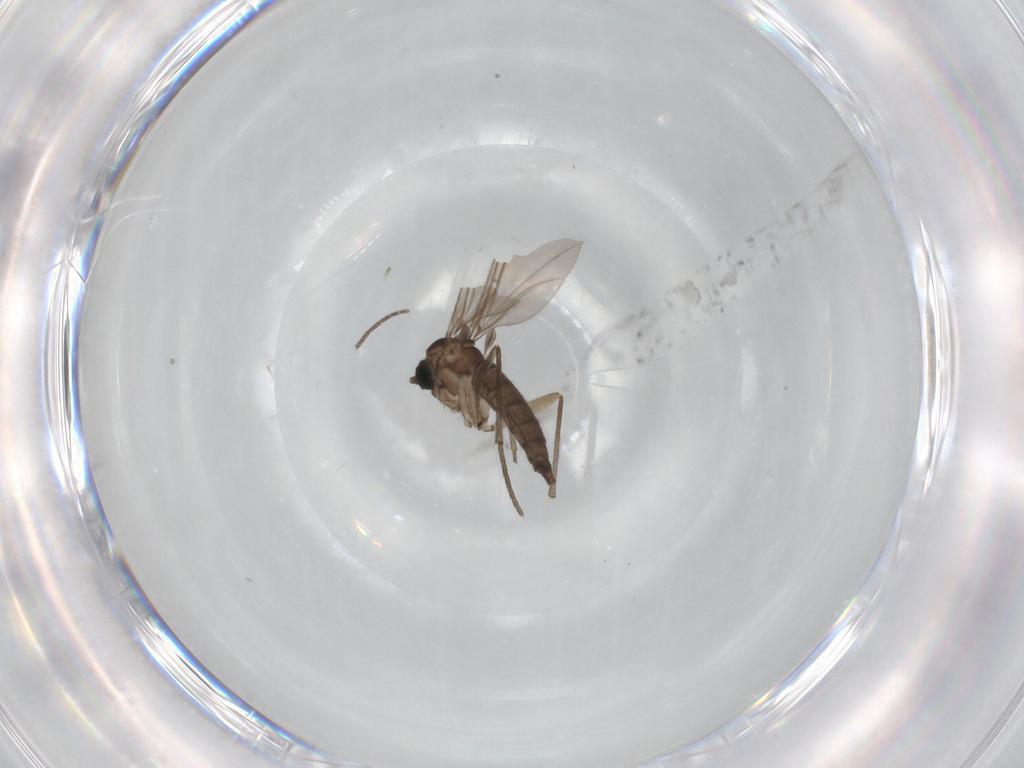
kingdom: Animalia
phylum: Arthropoda
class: Insecta
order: Diptera
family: Sciaridae
